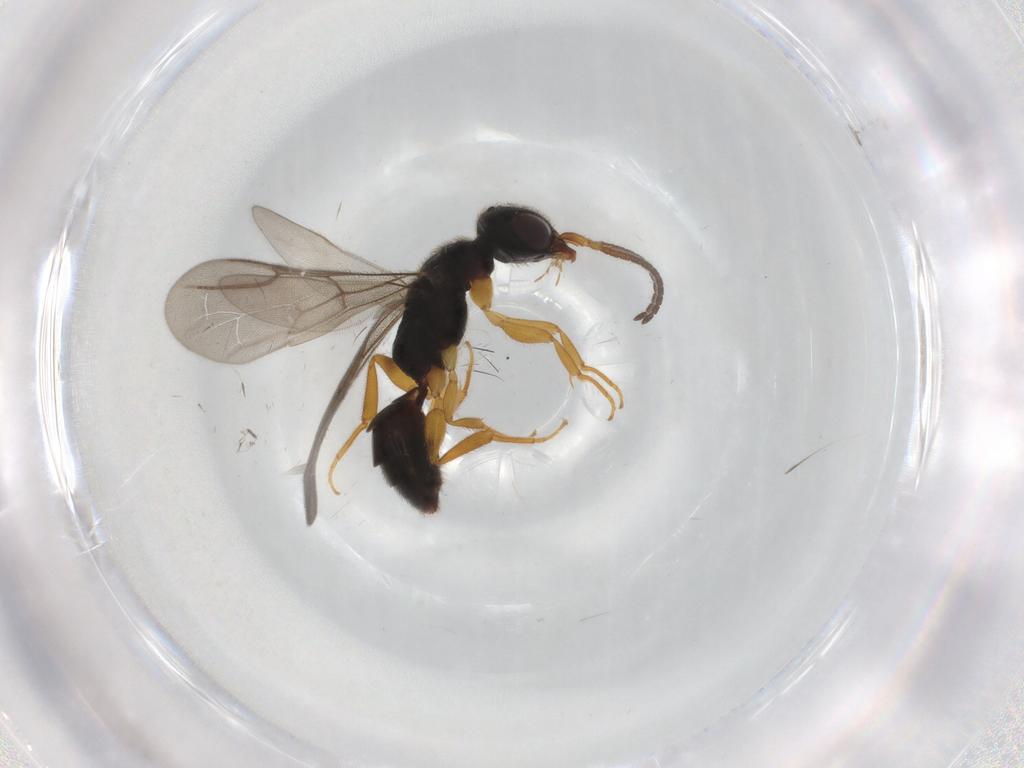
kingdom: Animalia
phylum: Arthropoda
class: Insecta
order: Hymenoptera
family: Bethylidae
